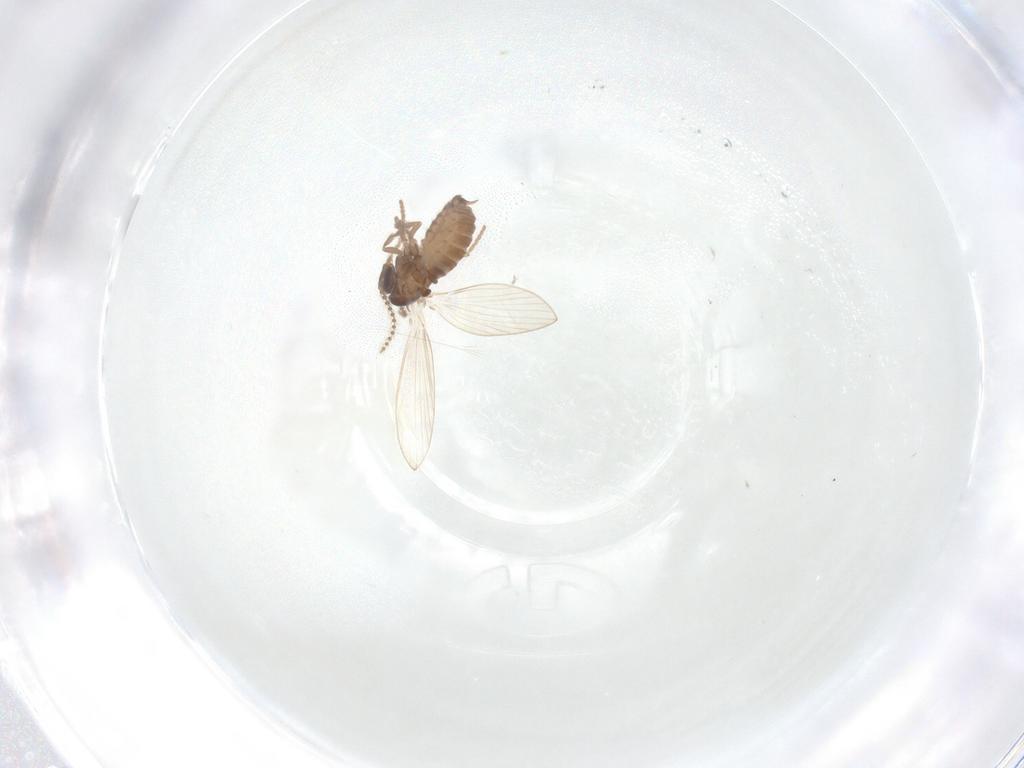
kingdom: Animalia
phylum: Arthropoda
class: Insecta
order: Diptera
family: Psychodidae
